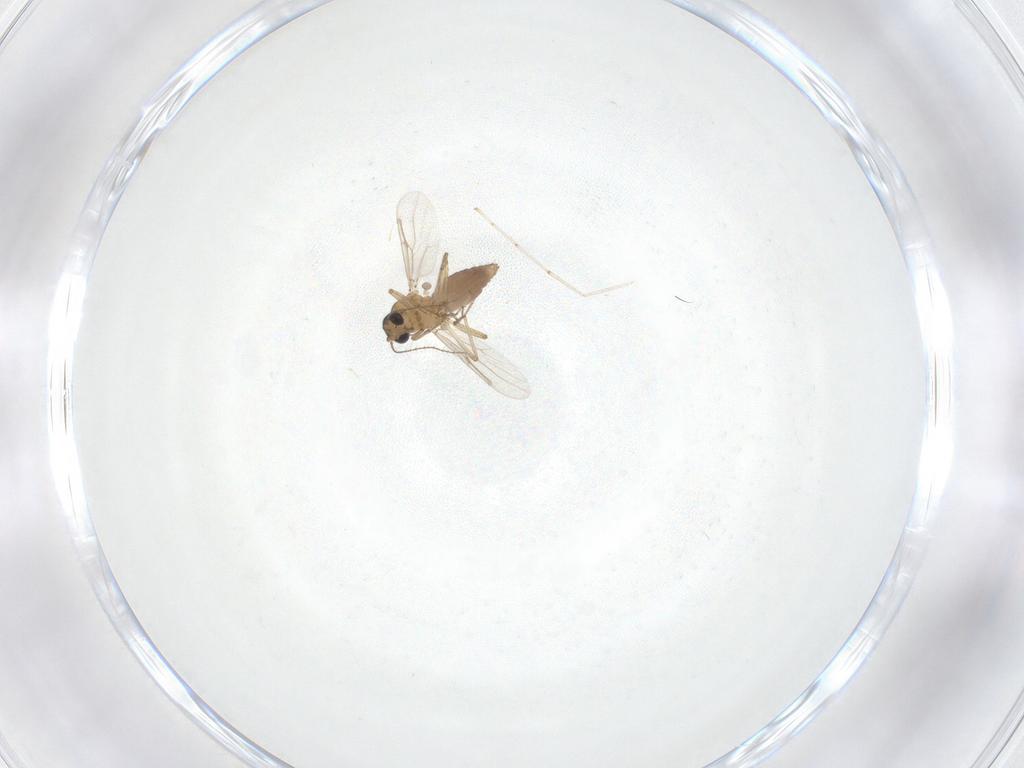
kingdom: Animalia
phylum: Arthropoda
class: Insecta
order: Diptera
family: Cecidomyiidae
